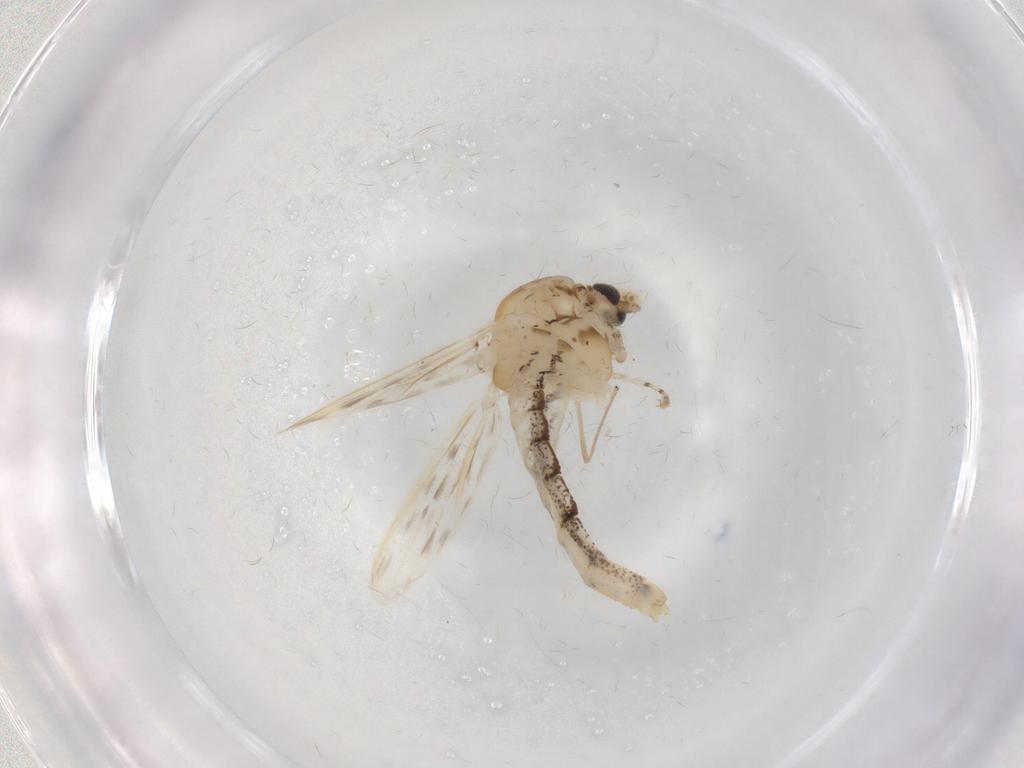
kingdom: Animalia
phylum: Arthropoda
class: Insecta
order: Diptera
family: Chaoboridae
